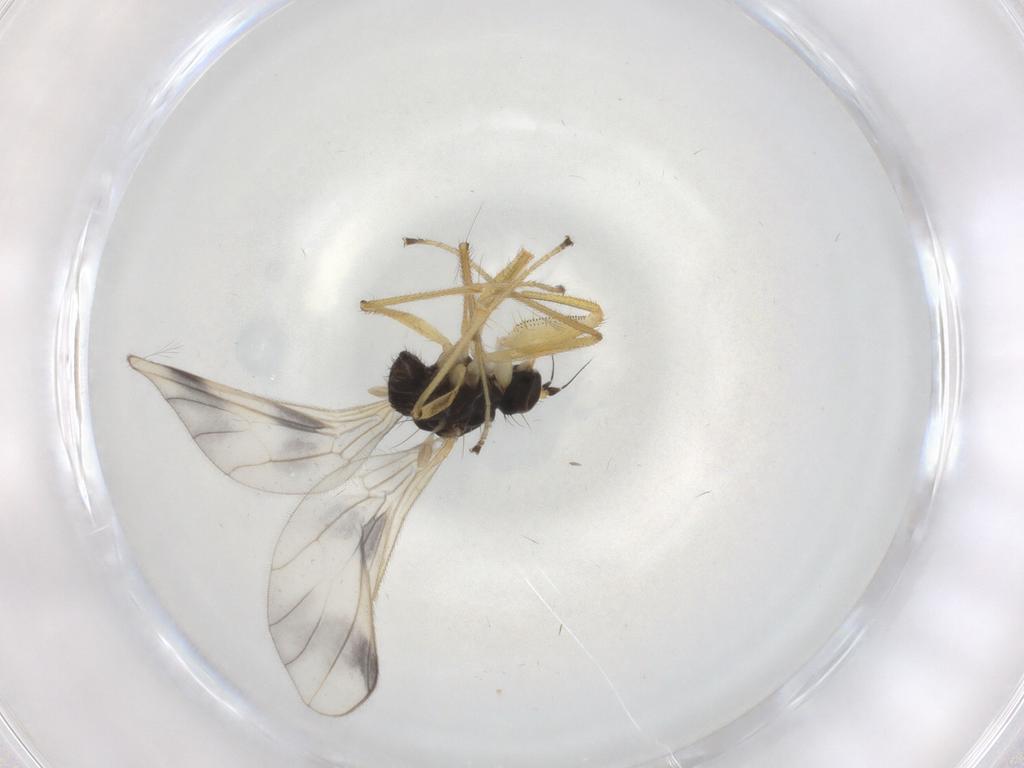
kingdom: Animalia
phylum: Arthropoda
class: Insecta
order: Diptera
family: Psychodidae
